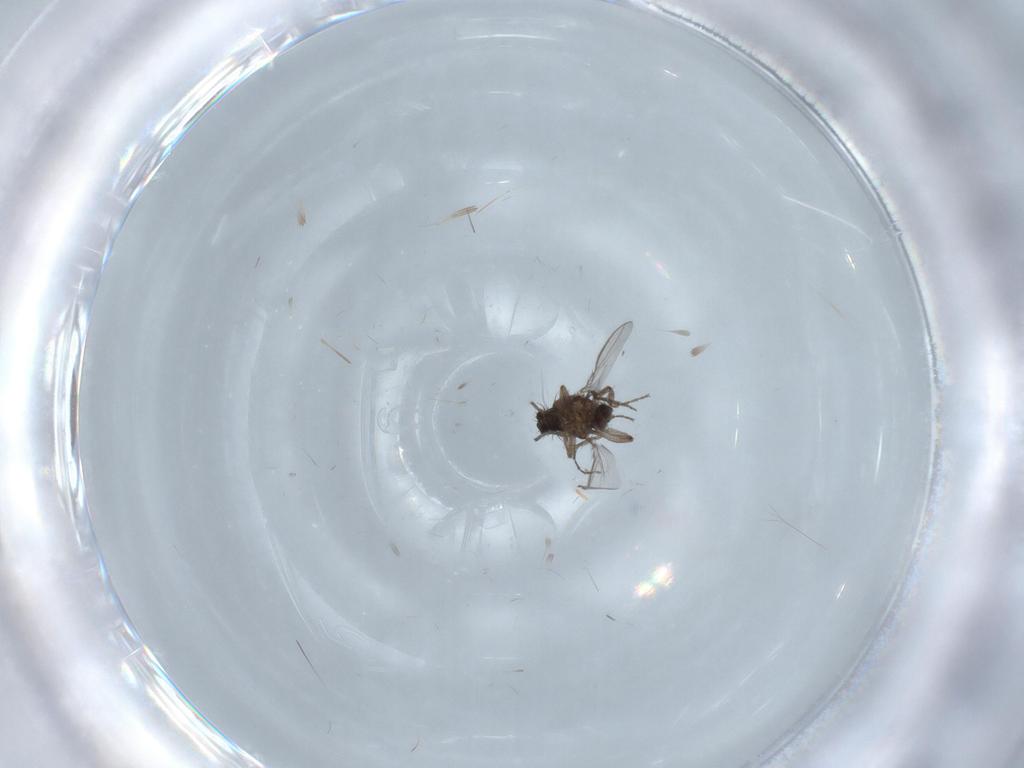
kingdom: Animalia
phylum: Arthropoda
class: Insecta
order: Diptera
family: Sphaeroceridae
